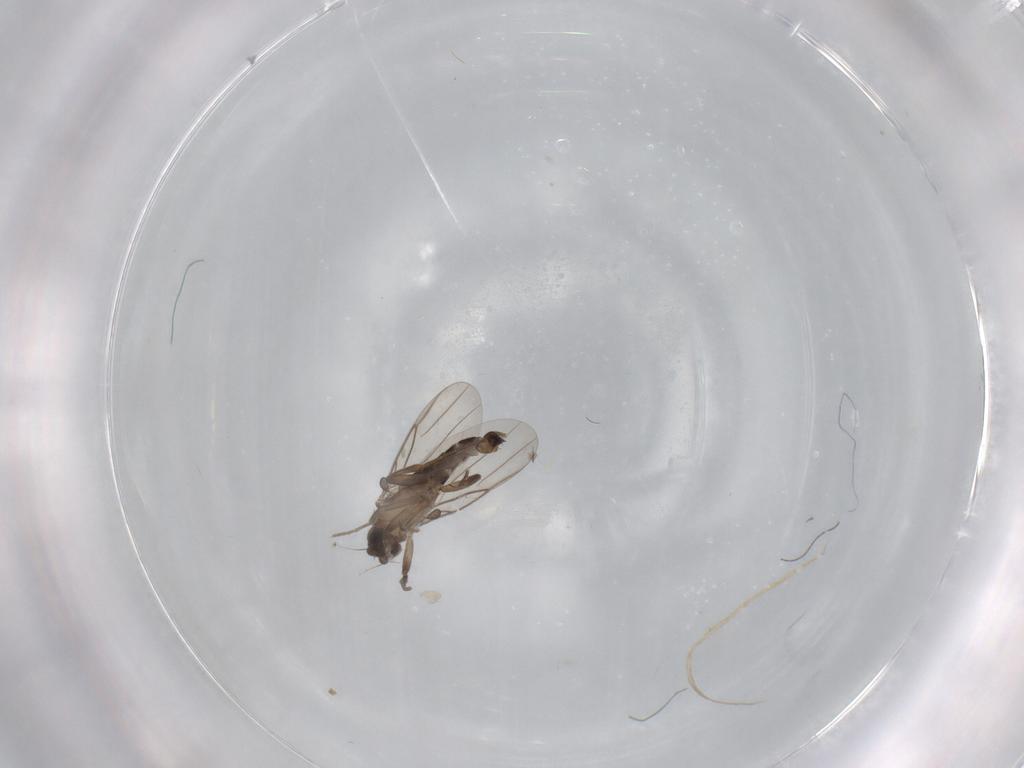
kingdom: Animalia
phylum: Arthropoda
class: Insecta
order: Diptera
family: Phoridae
